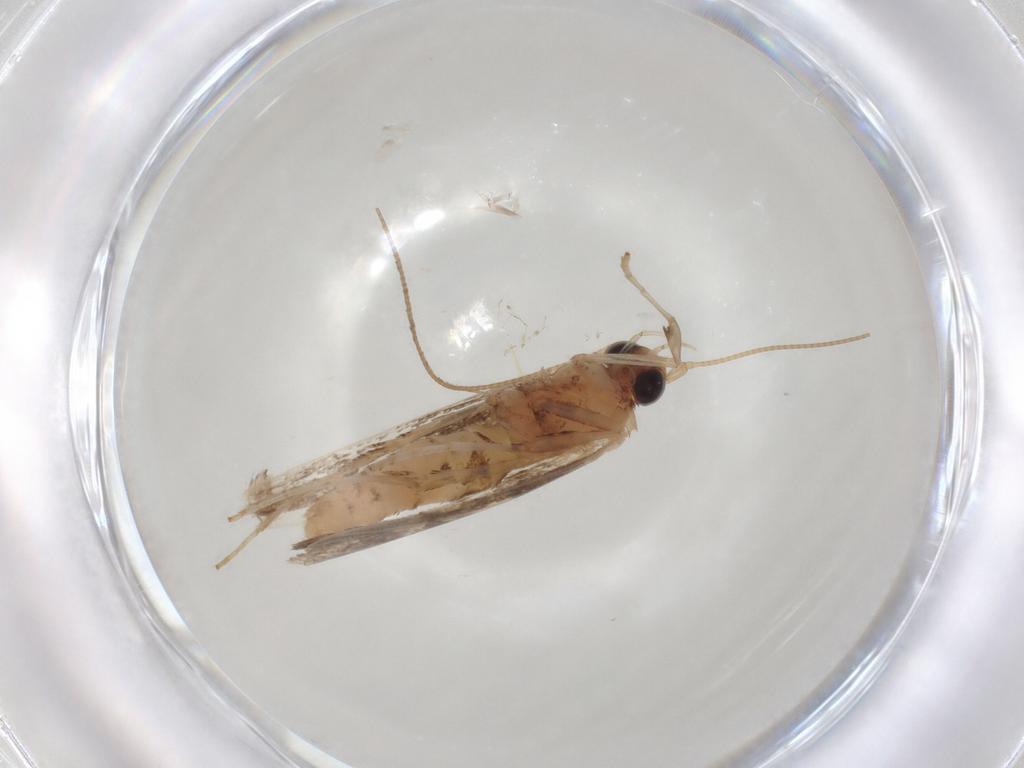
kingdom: Animalia
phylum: Arthropoda
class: Insecta
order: Lepidoptera
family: Gracillariidae
